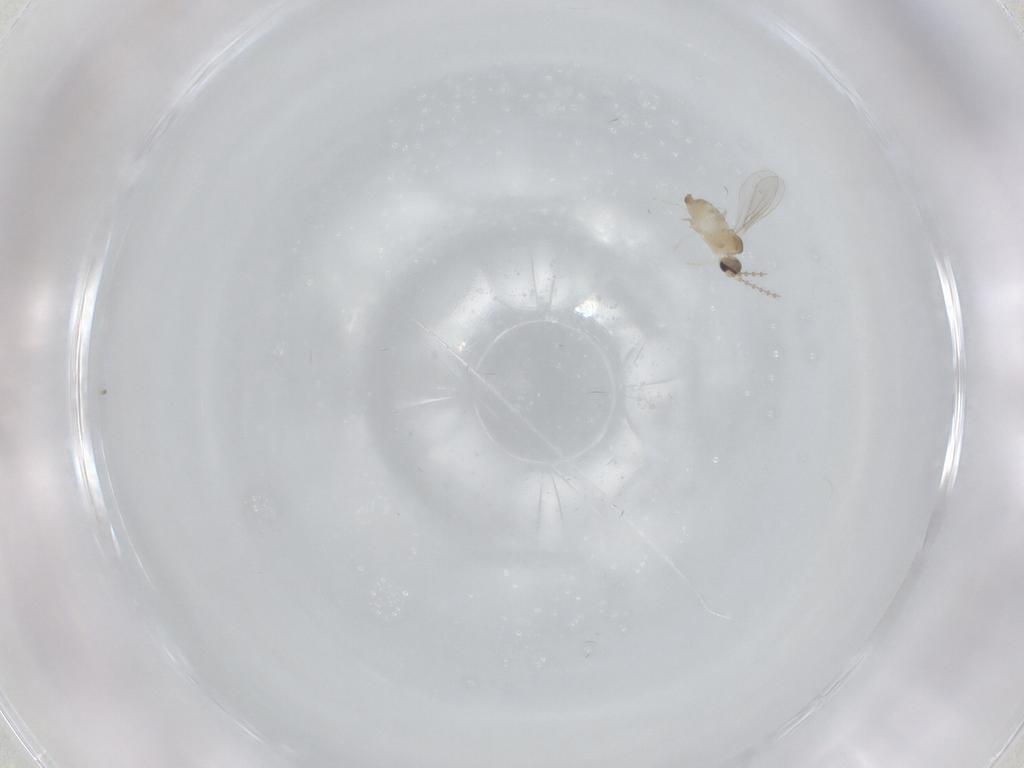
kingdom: Animalia
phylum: Arthropoda
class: Insecta
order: Diptera
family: Cecidomyiidae
